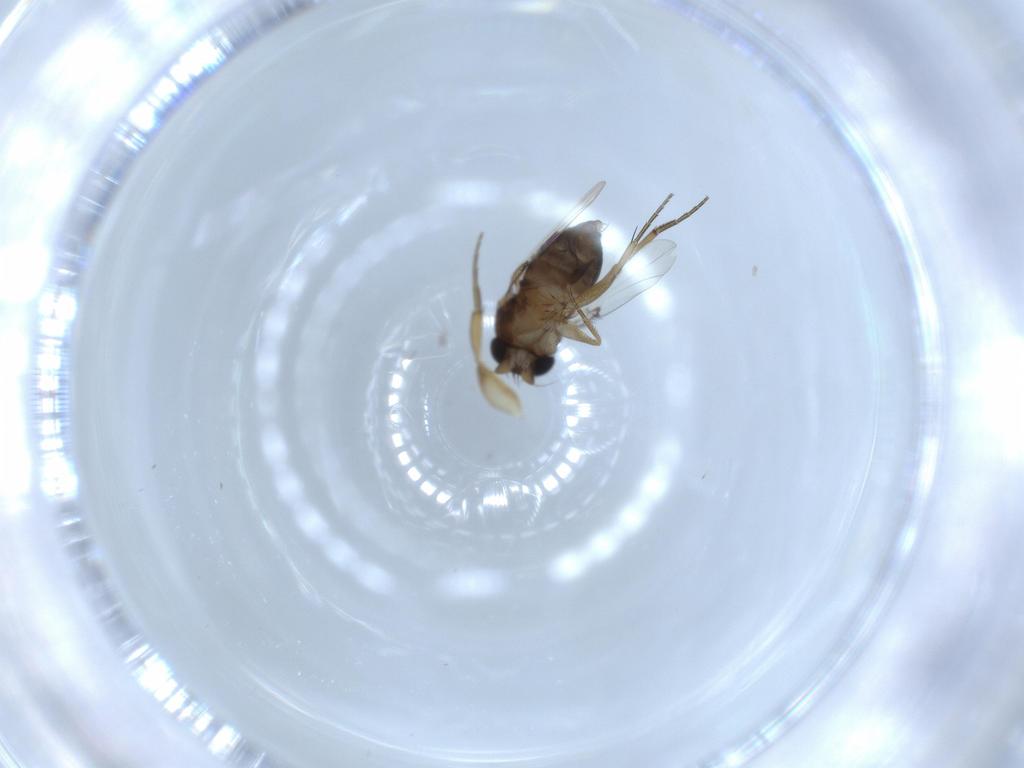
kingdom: Animalia
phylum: Arthropoda
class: Insecta
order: Diptera
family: Phoridae
